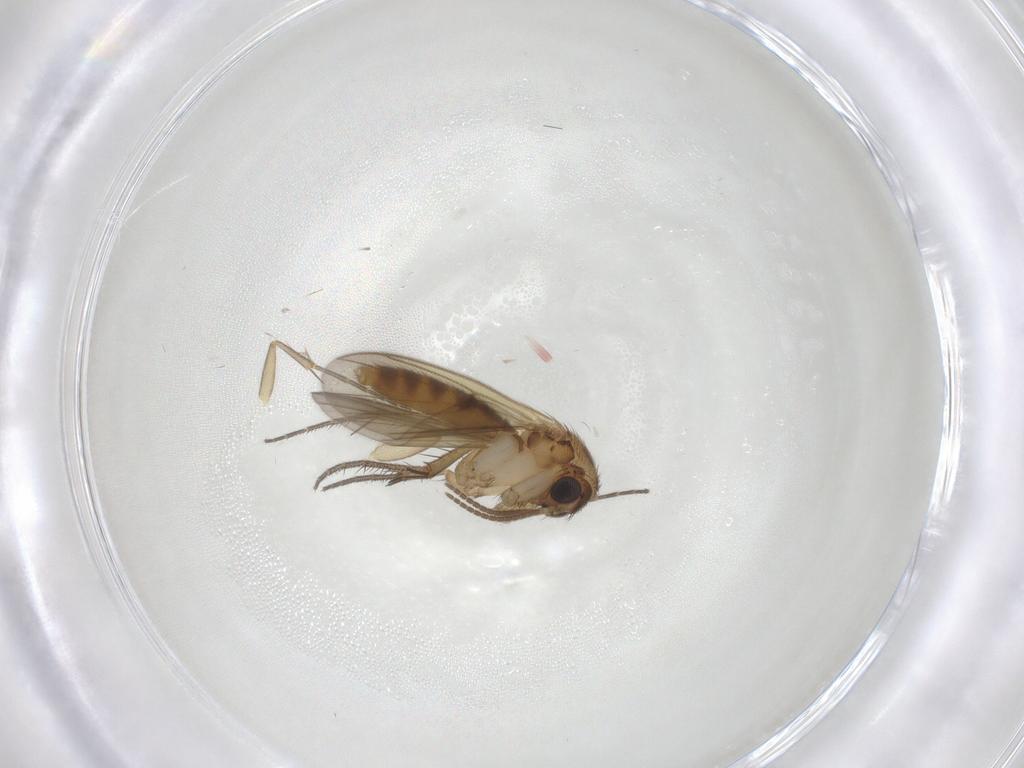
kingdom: Animalia
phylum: Arthropoda
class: Insecta
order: Diptera
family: Mycetophilidae
